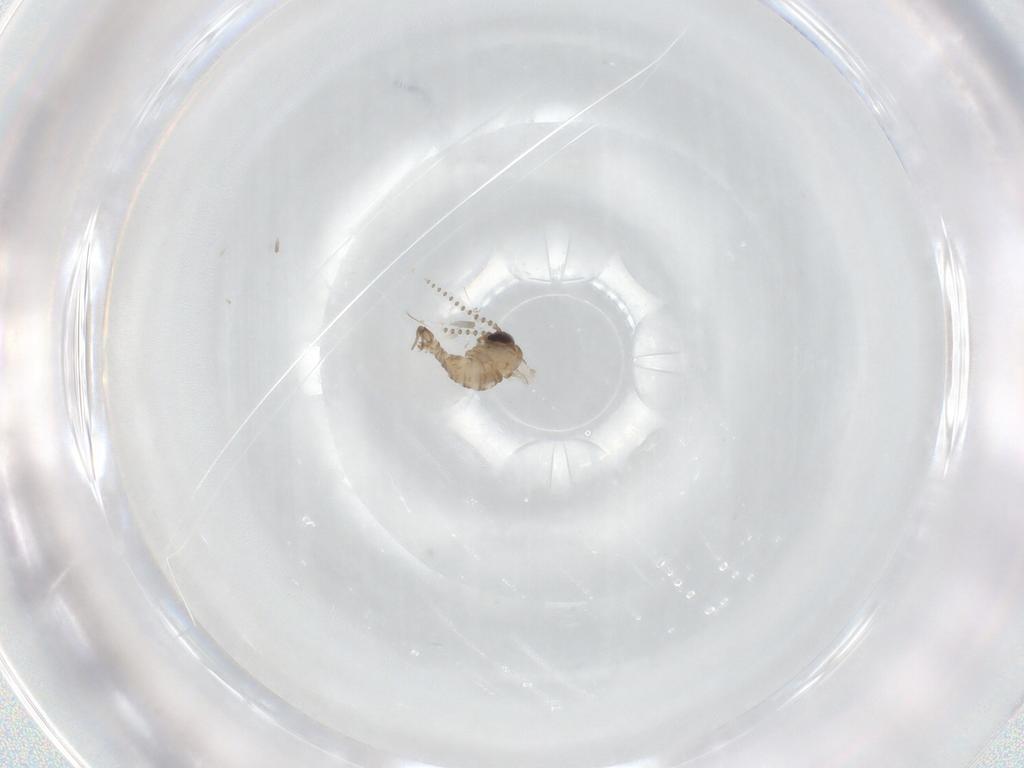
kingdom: Animalia
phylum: Arthropoda
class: Insecta
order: Diptera
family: Psychodidae
